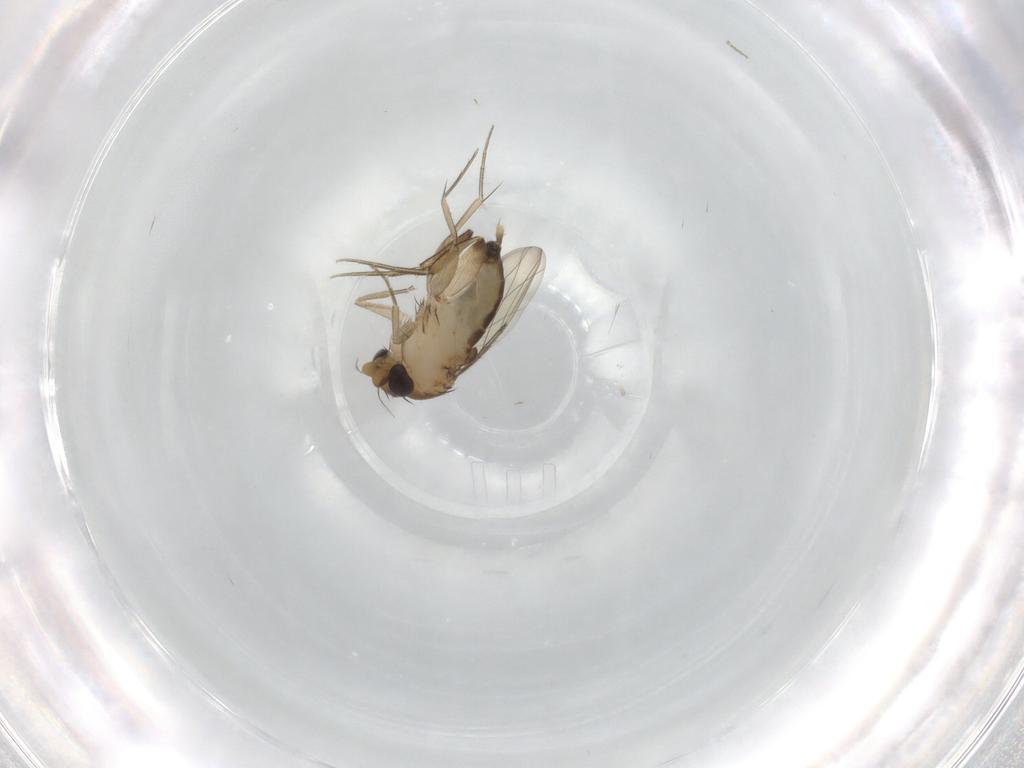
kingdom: Animalia
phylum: Arthropoda
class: Insecta
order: Diptera
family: Phoridae
